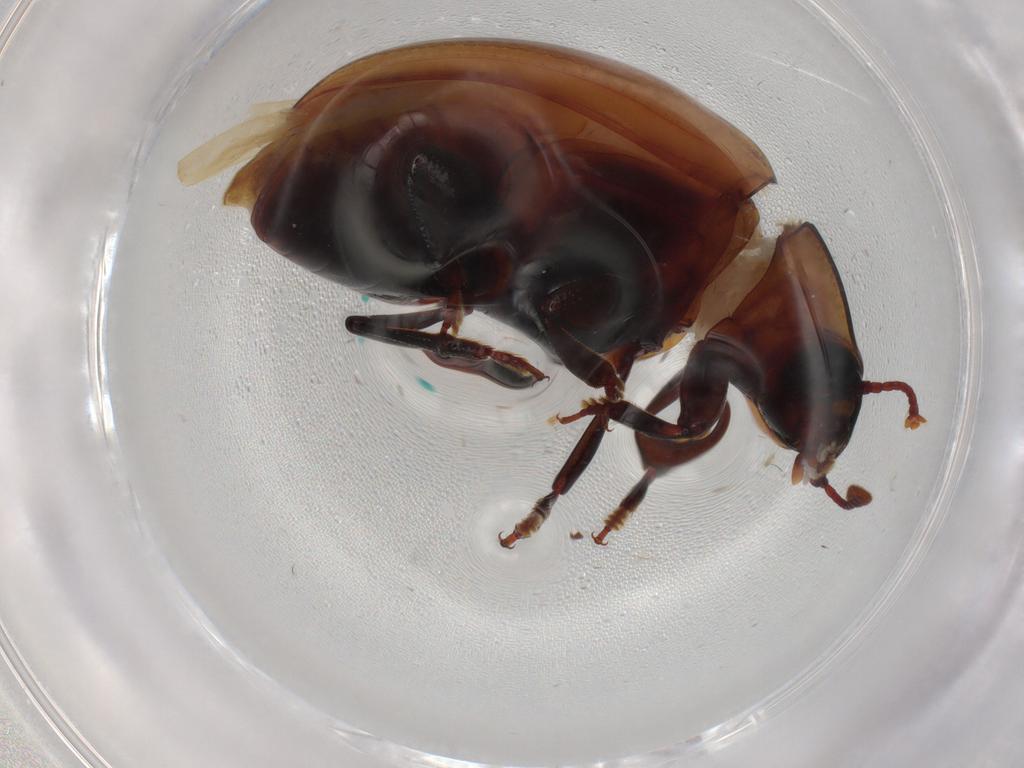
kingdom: Animalia
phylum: Arthropoda
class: Insecta
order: Coleoptera
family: Zopheridae
